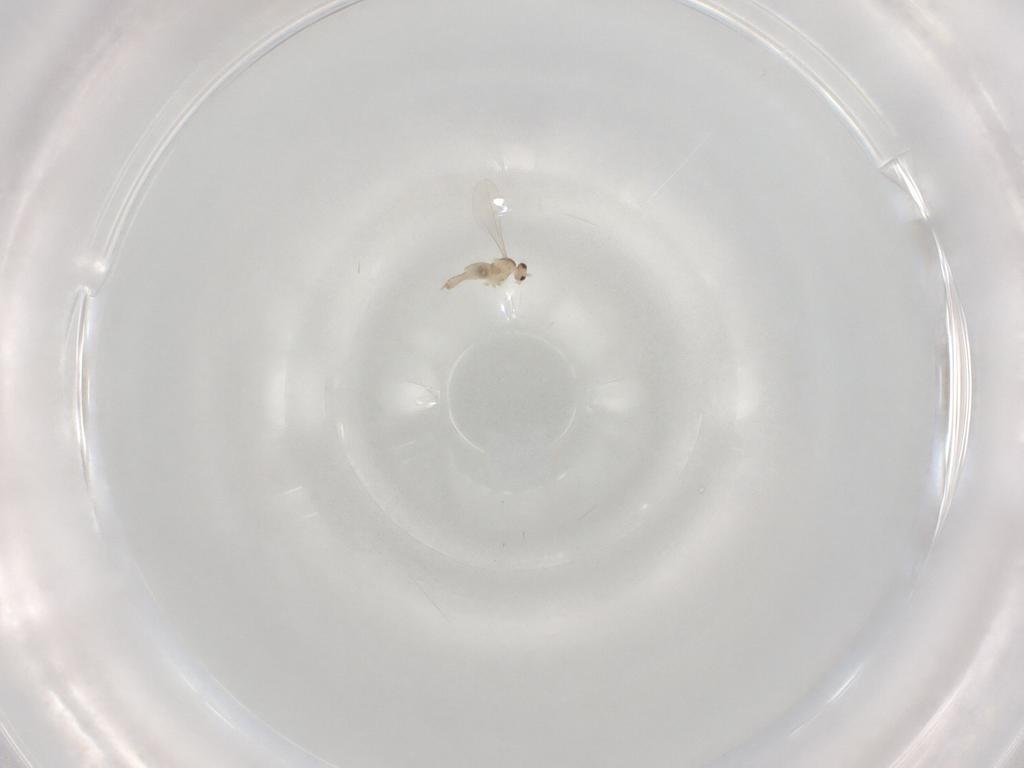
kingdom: Animalia
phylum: Arthropoda
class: Insecta
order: Diptera
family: Cecidomyiidae
